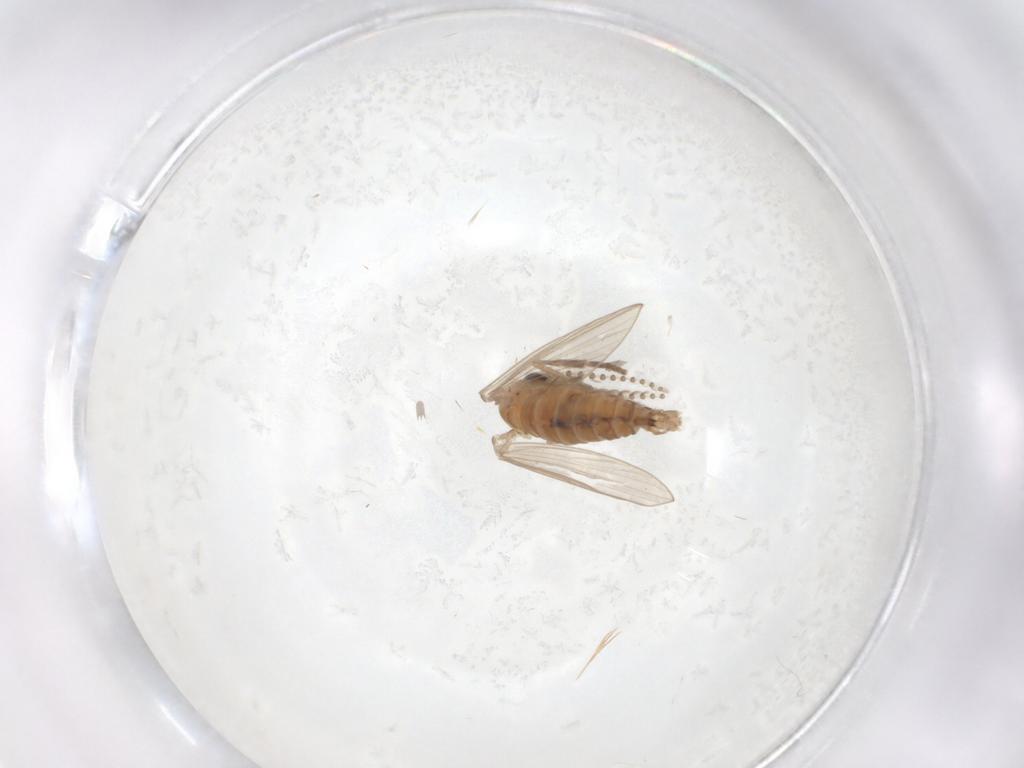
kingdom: Animalia
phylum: Arthropoda
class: Insecta
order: Diptera
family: Psychodidae
